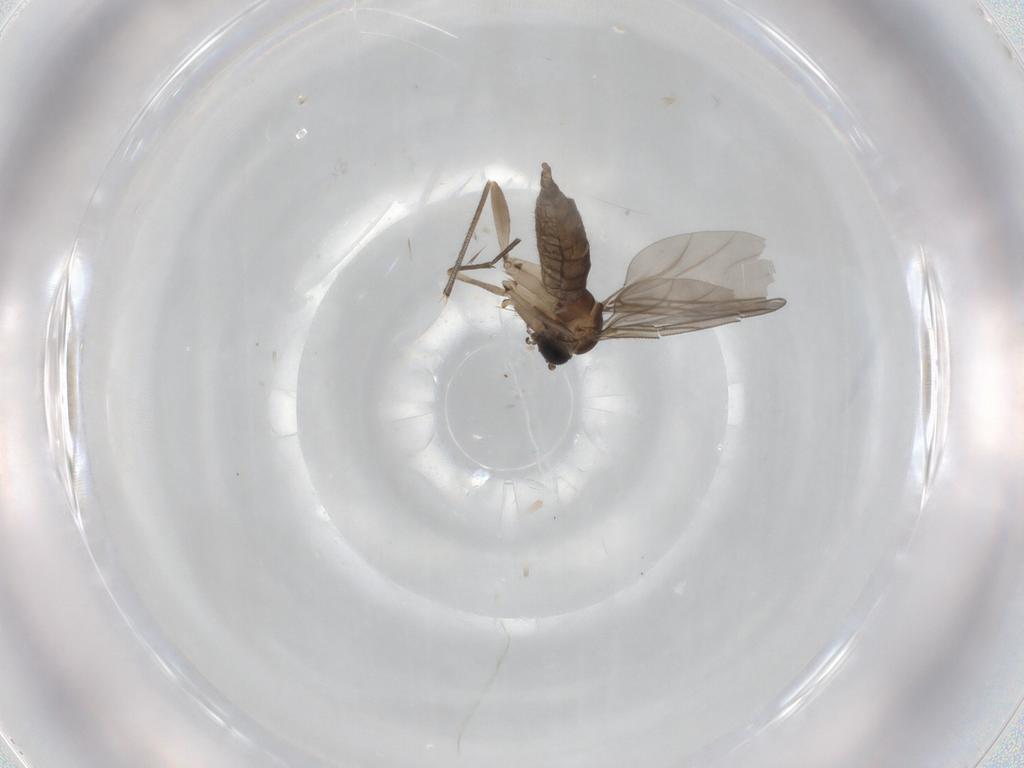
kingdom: Animalia
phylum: Arthropoda
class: Insecta
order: Diptera
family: Sciaridae
